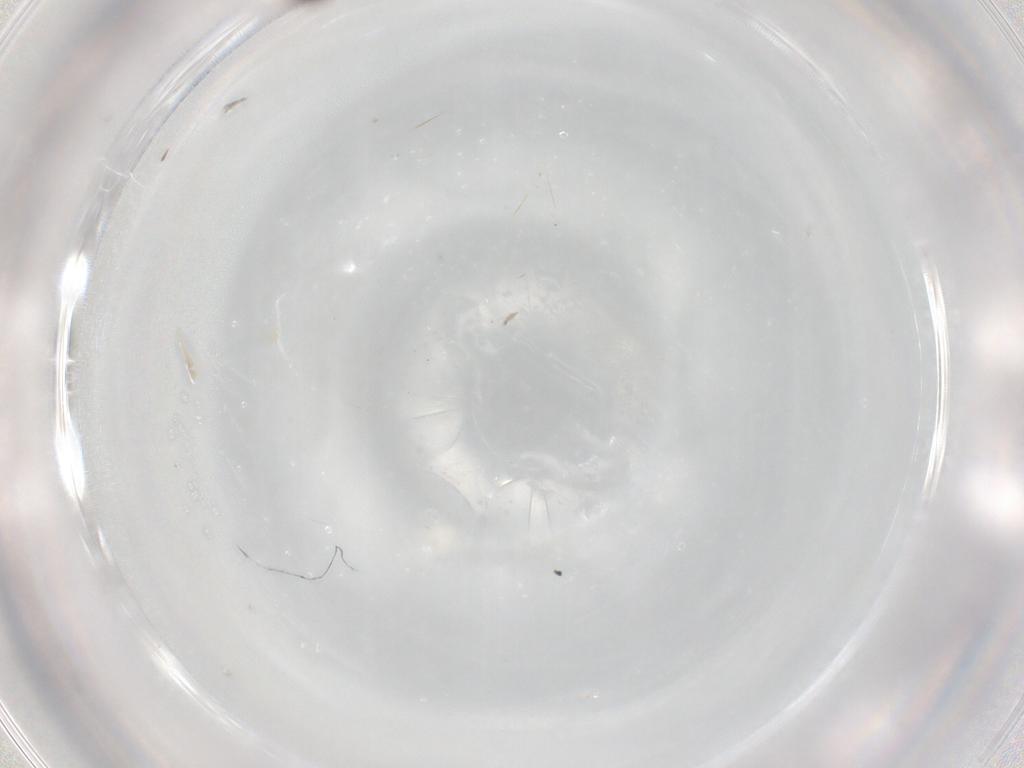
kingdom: Animalia
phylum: Arthropoda
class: Insecta
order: Diptera
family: Cecidomyiidae
